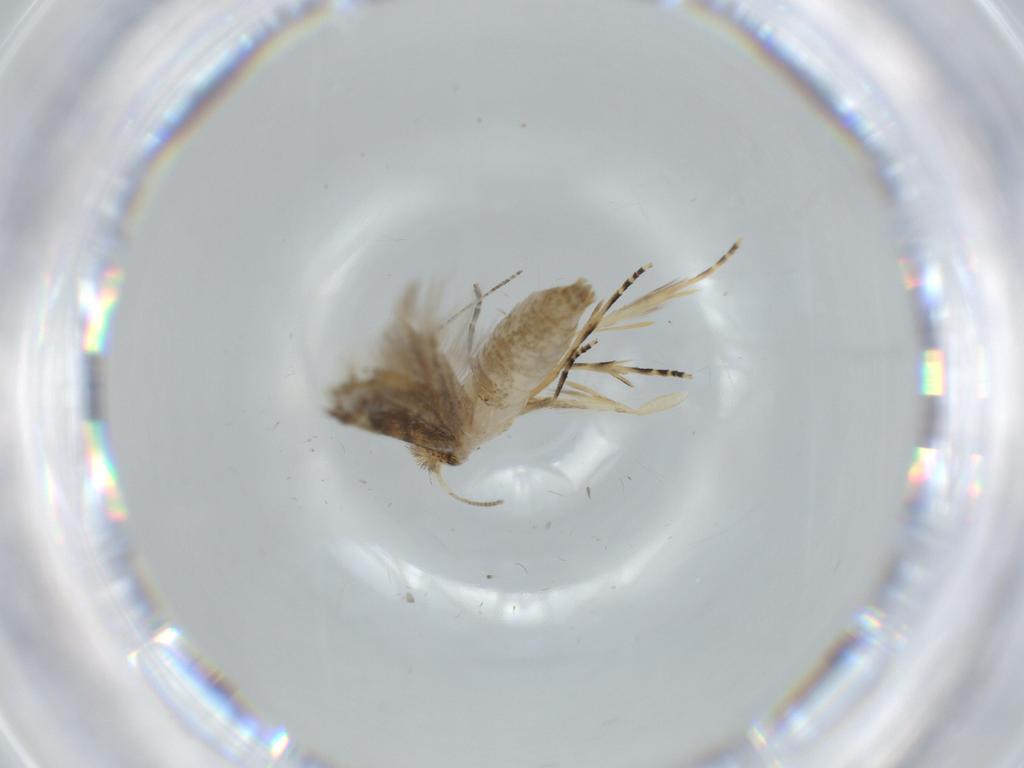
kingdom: Animalia
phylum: Arthropoda
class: Insecta
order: Lepidoptera
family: Bucculatricidae
